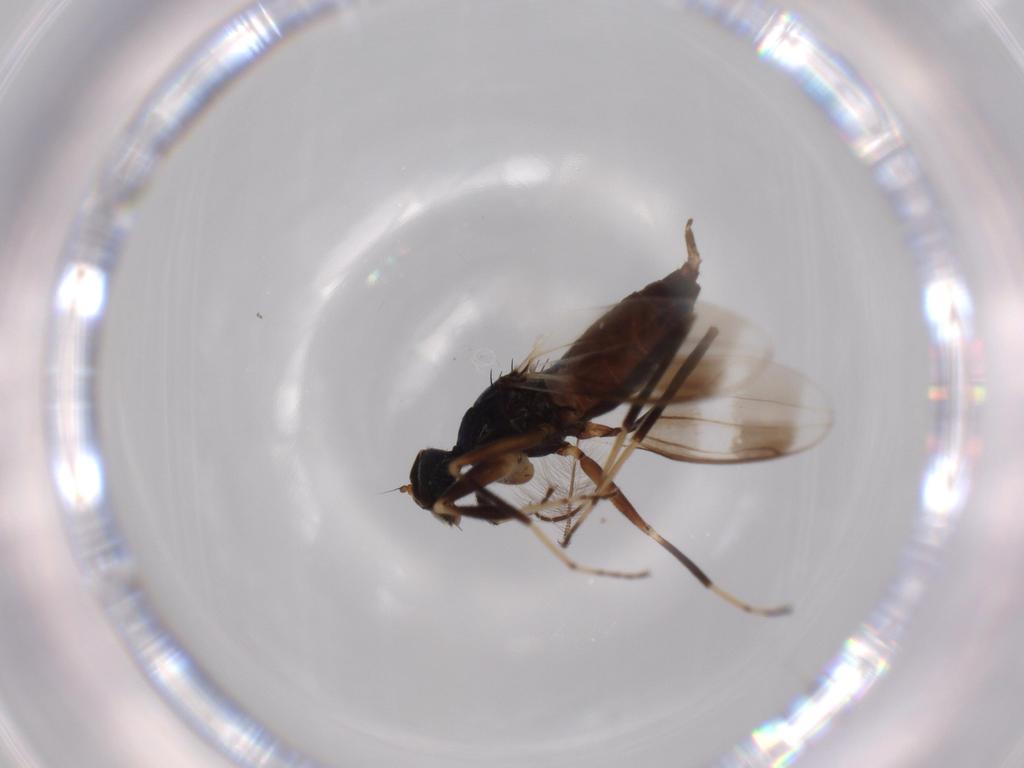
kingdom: Animalia
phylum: Arthropoda
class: Insecta
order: Diptera
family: Hybotidae
